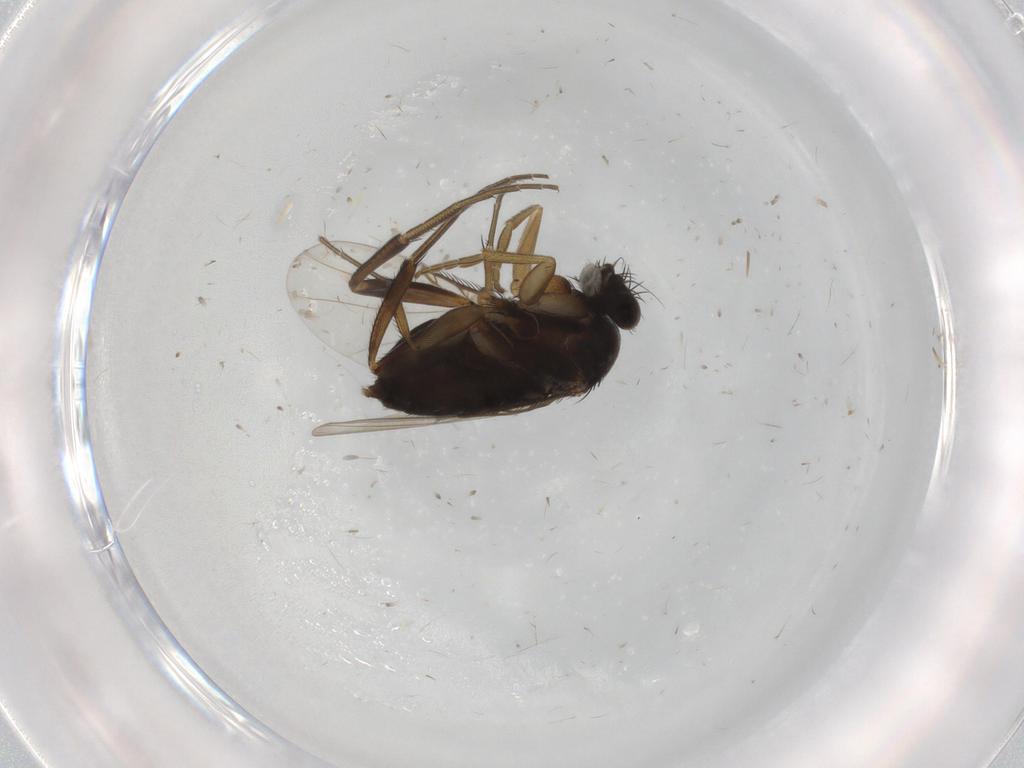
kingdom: Animalia
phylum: Arthropoda
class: Insecta
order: Diptera
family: Phoridae
